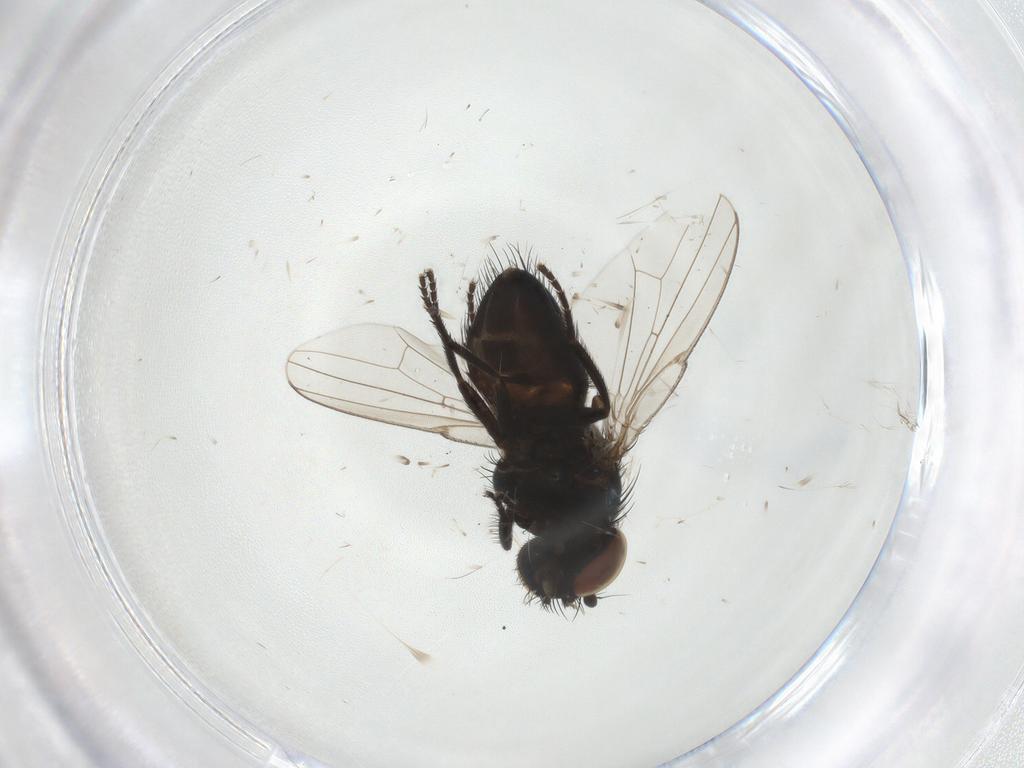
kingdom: Animalia
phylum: Arthropoda
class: Insecta
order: Diptera
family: Chloropidae
